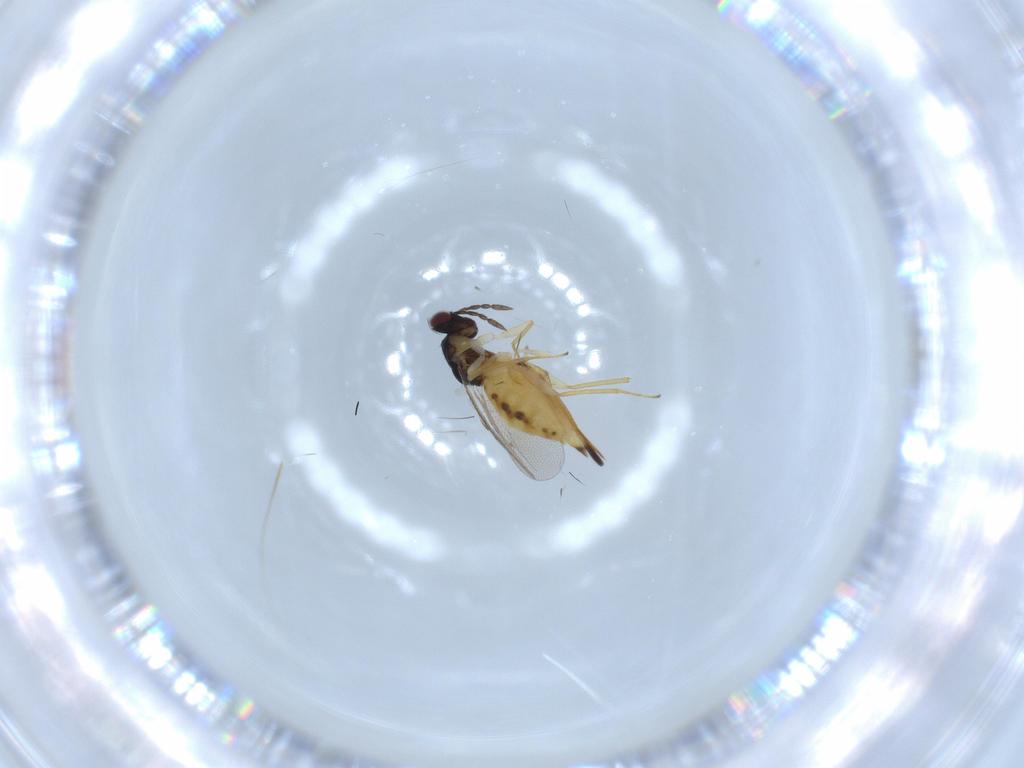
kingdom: Animalia
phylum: Arthropoda
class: Insecta
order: Hymenoptera
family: Eulophidae
